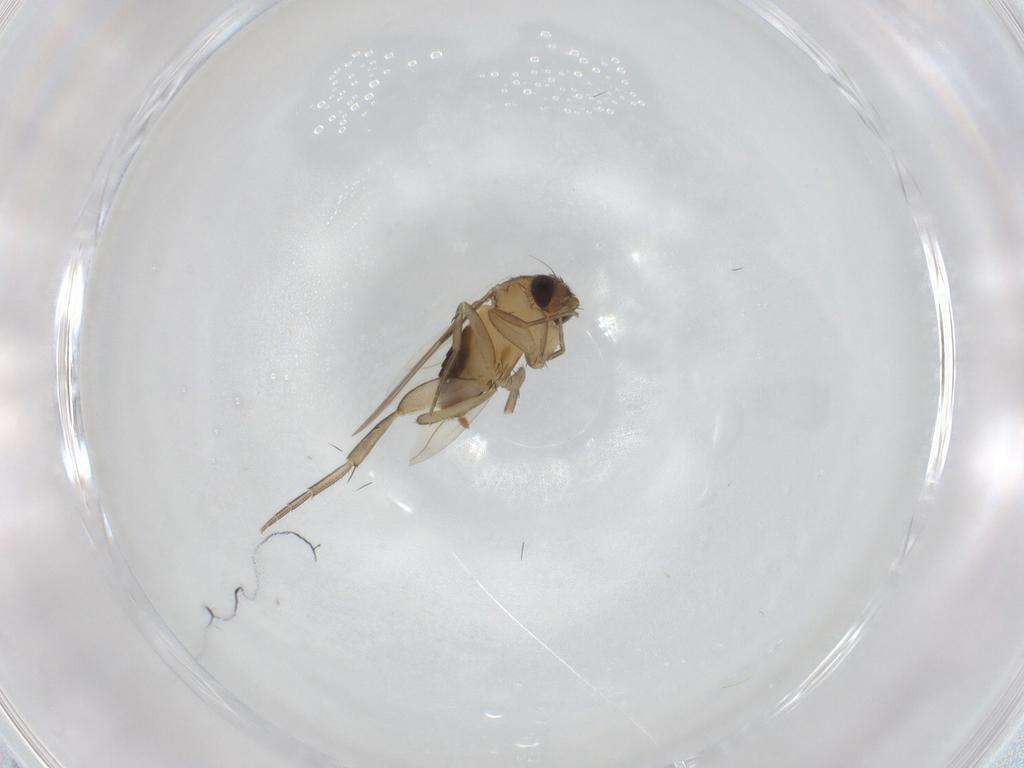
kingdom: Animalia
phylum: Arthropoda
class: Insecta
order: Diptera
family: Phoridae
